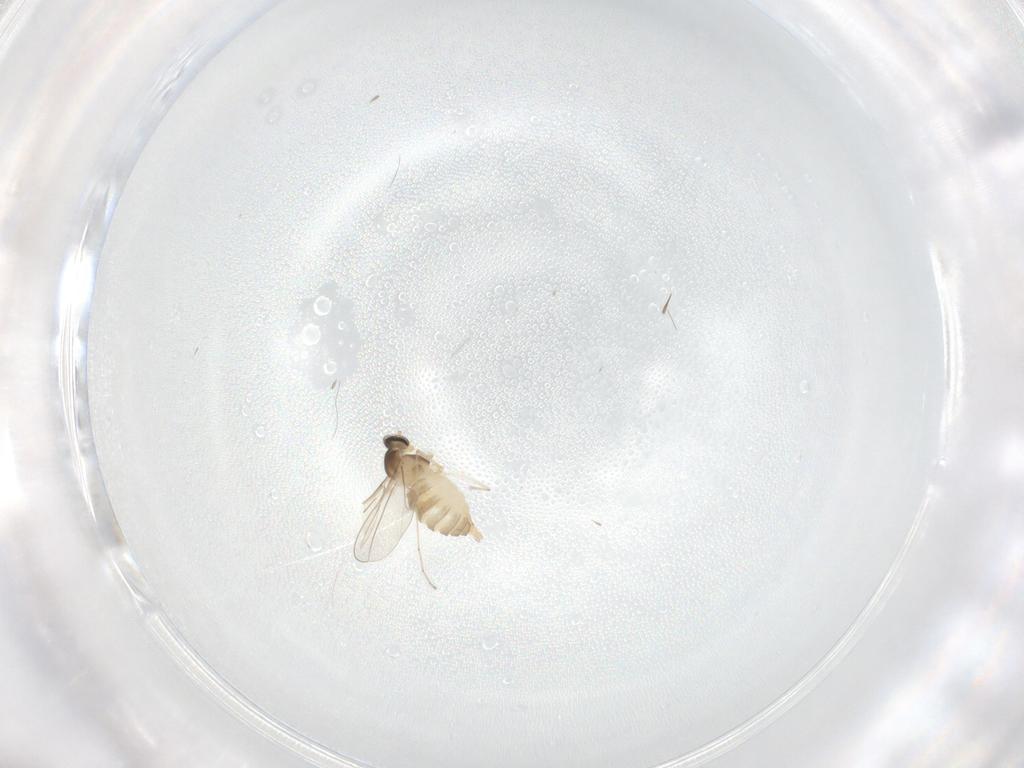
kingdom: Animalia
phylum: Arthropoda
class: Insecta
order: Diptera
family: Cecidomyiidae
